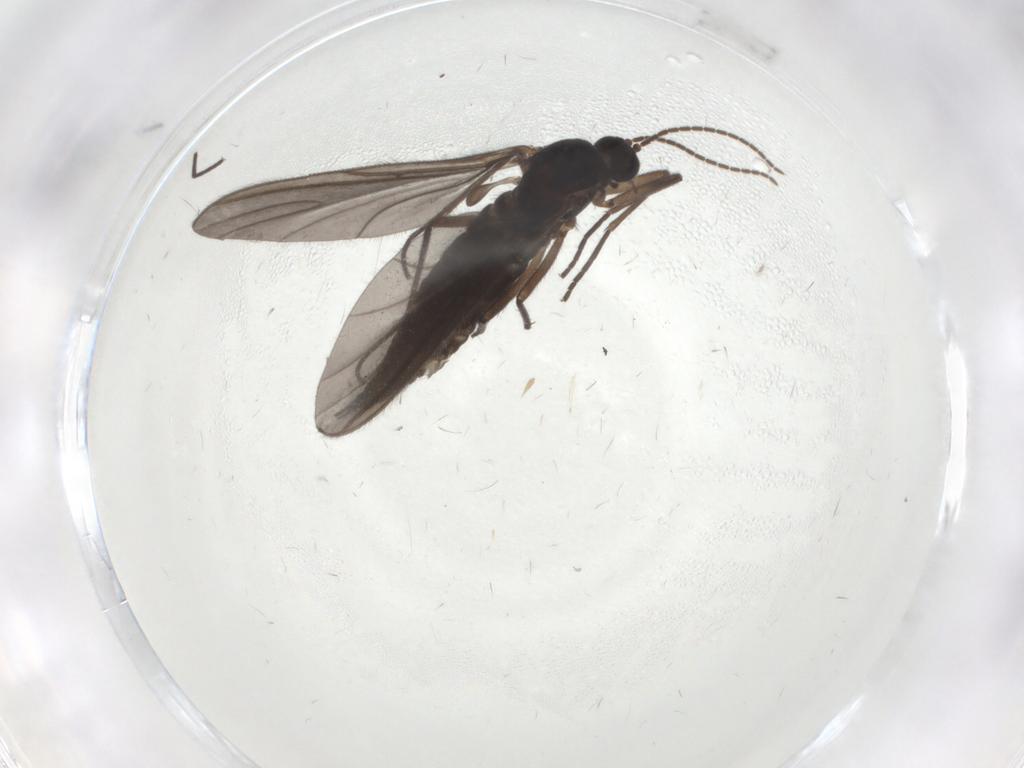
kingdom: Animalia
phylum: Arthropoda
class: Insecta
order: Diptera
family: Sciaridae
